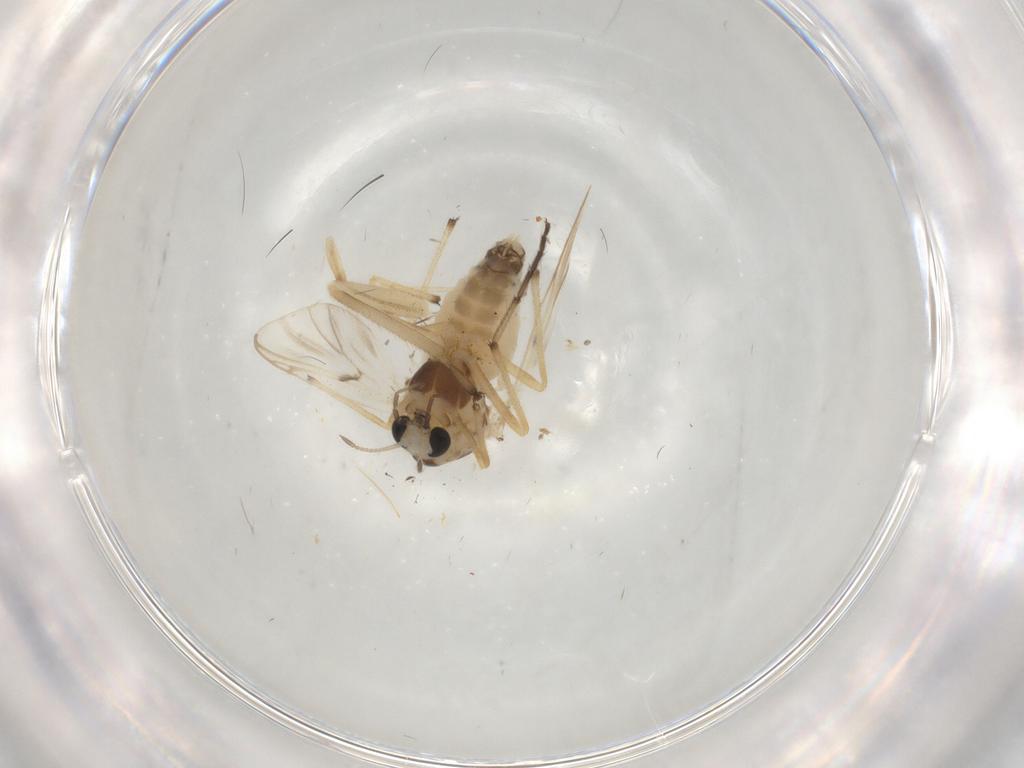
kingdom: Animalia
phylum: Arthropoda
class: Insecta
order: Diptera
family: Chironomidae
